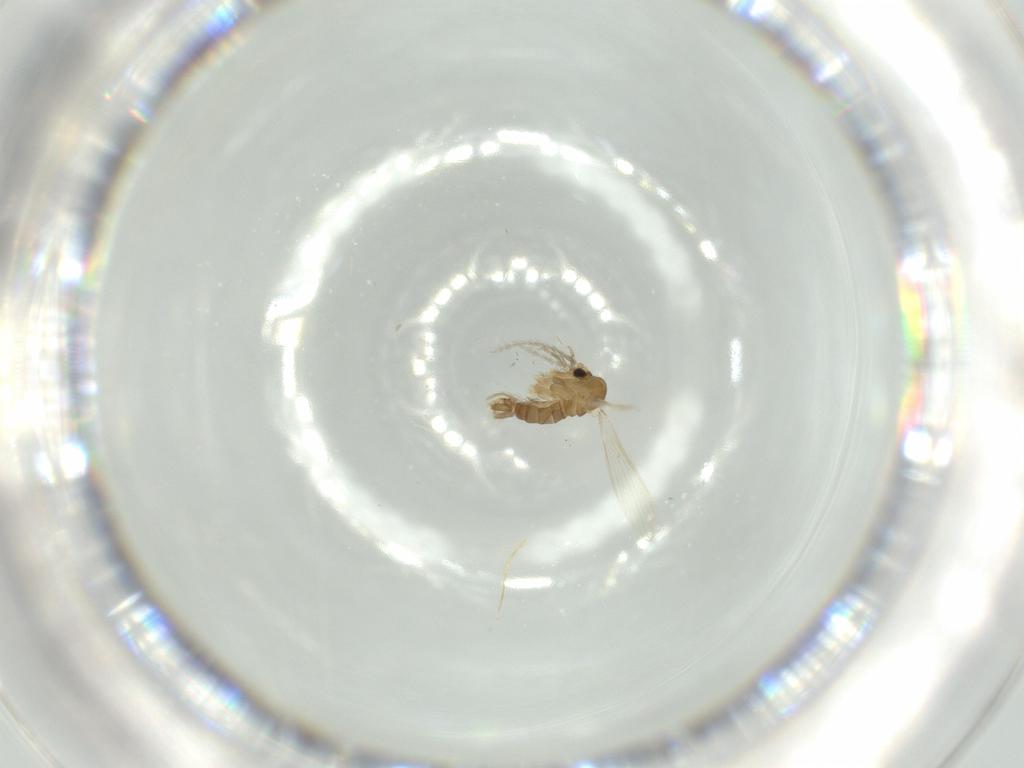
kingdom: Animalia
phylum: Arthropoda
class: Insecta
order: Diptera
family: Psychodidae
